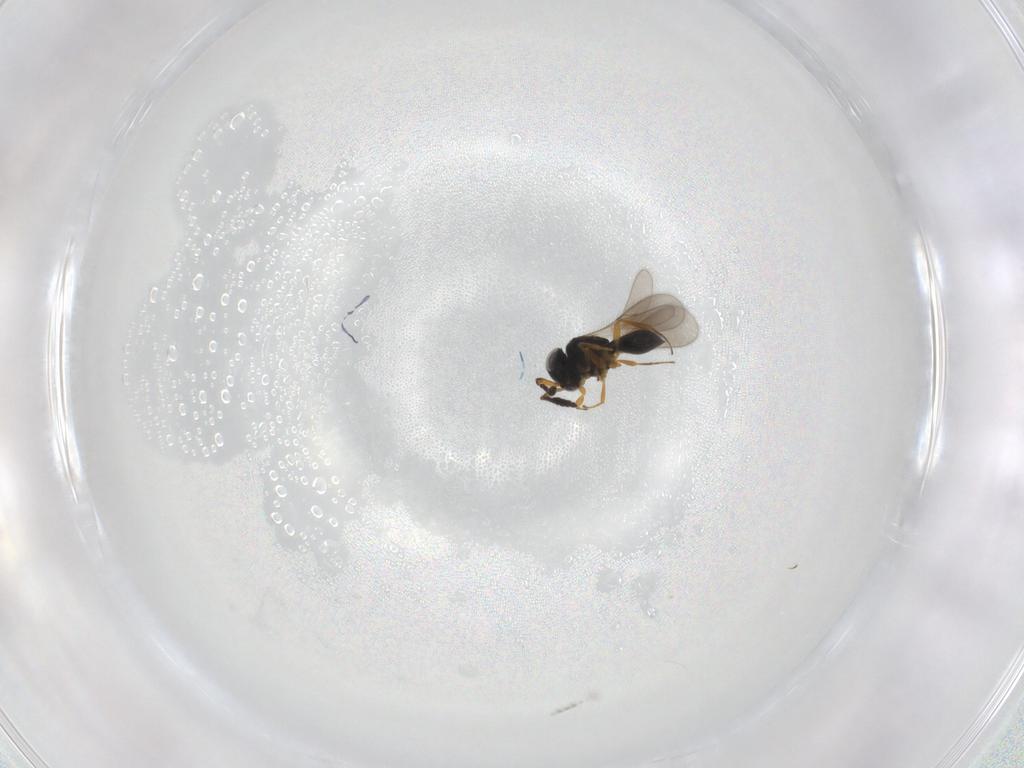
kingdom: Animalia
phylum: Arthropoda
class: Insecta
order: Hymenoptera
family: Scelionidae
